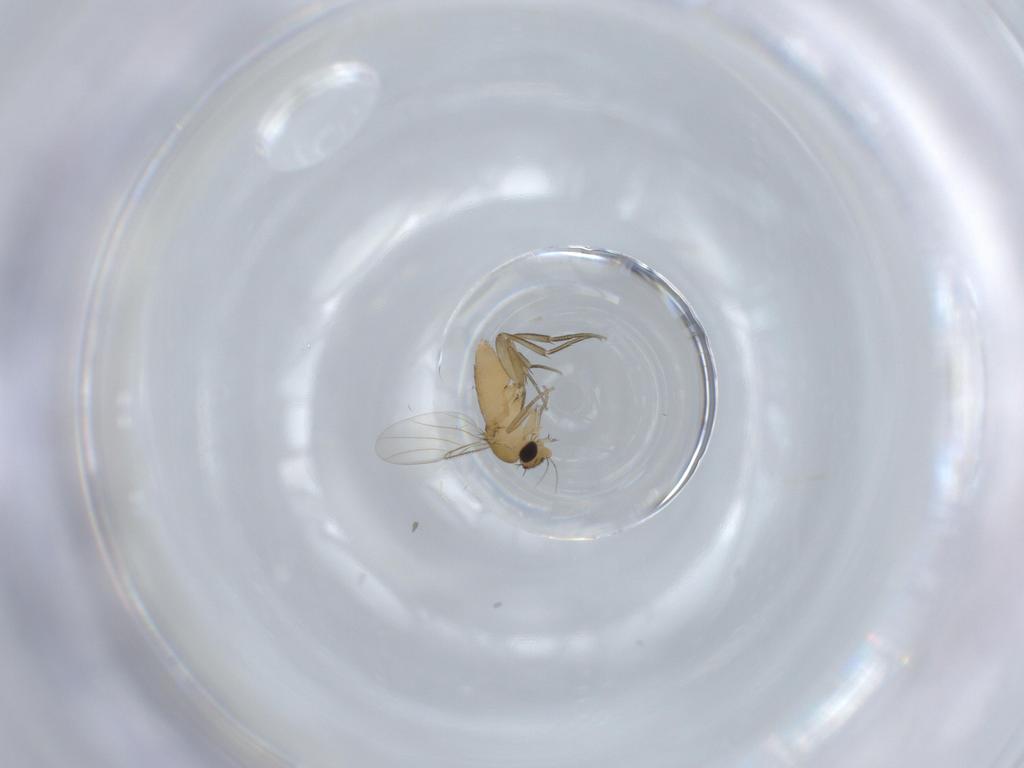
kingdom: Animalia
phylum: Arthropoda
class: Insecta
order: Diptera
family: Phoridae
